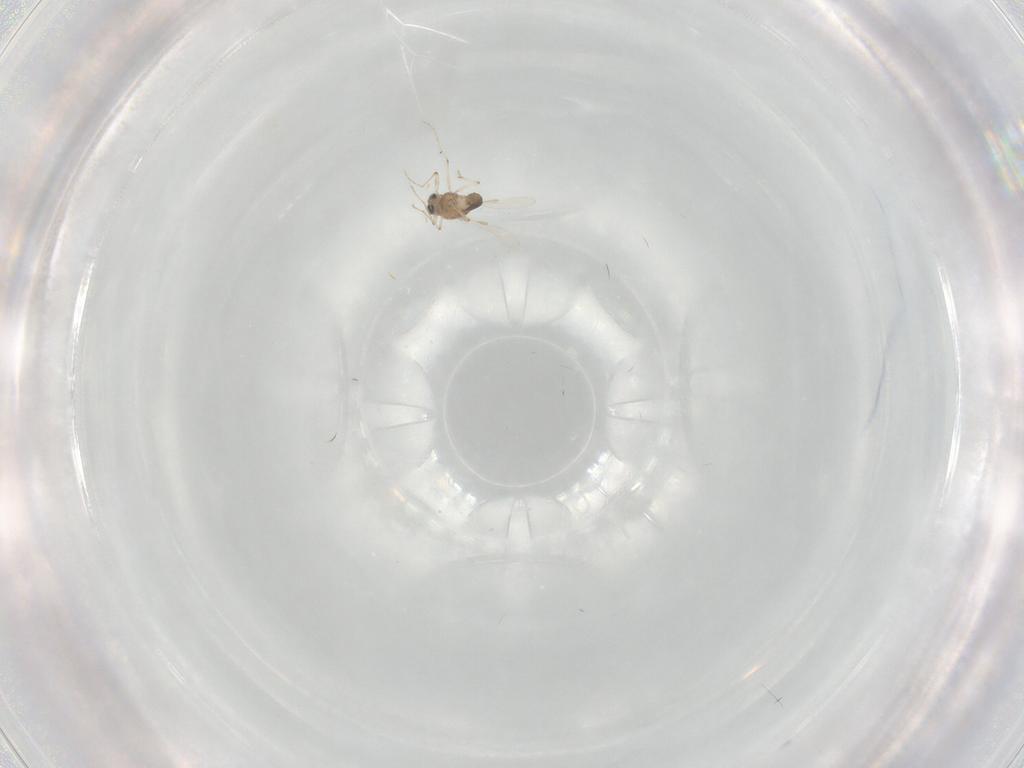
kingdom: Animalia
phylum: Arthropoda
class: Insecta
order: Diptera
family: Chironomidae
